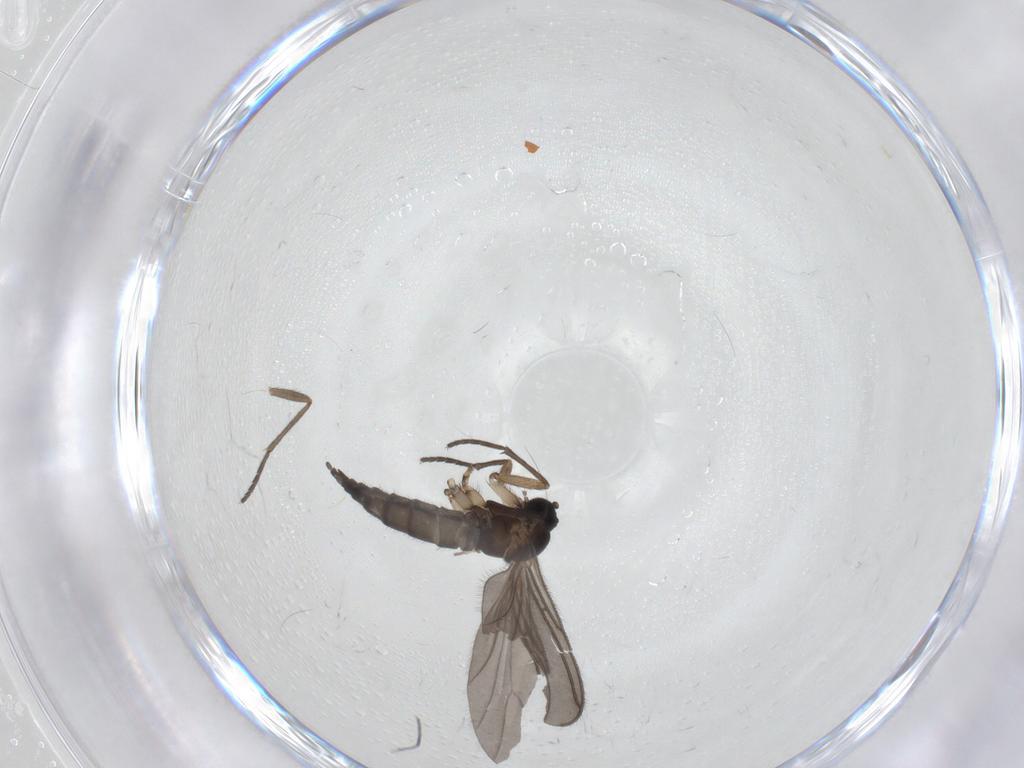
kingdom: Animalia
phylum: Arthropoda
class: Insecta
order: Diptera
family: Sciaridae
